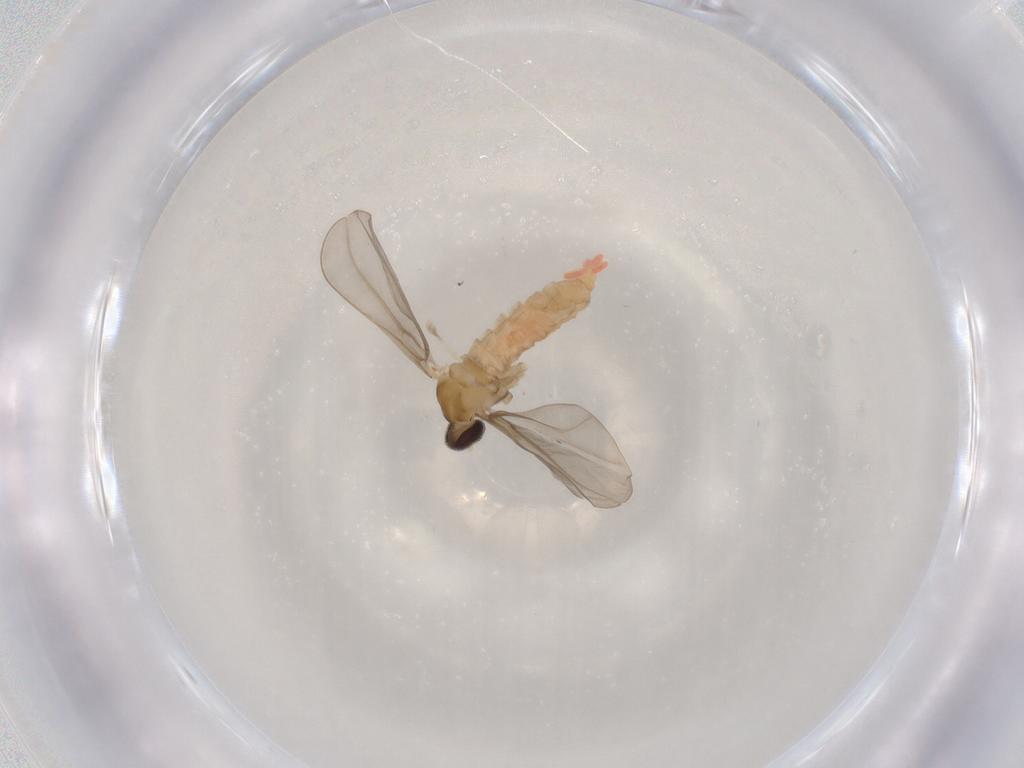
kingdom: Animalia
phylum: Arthropoda
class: Insecta
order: Diptera
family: Cecidomyiidae
